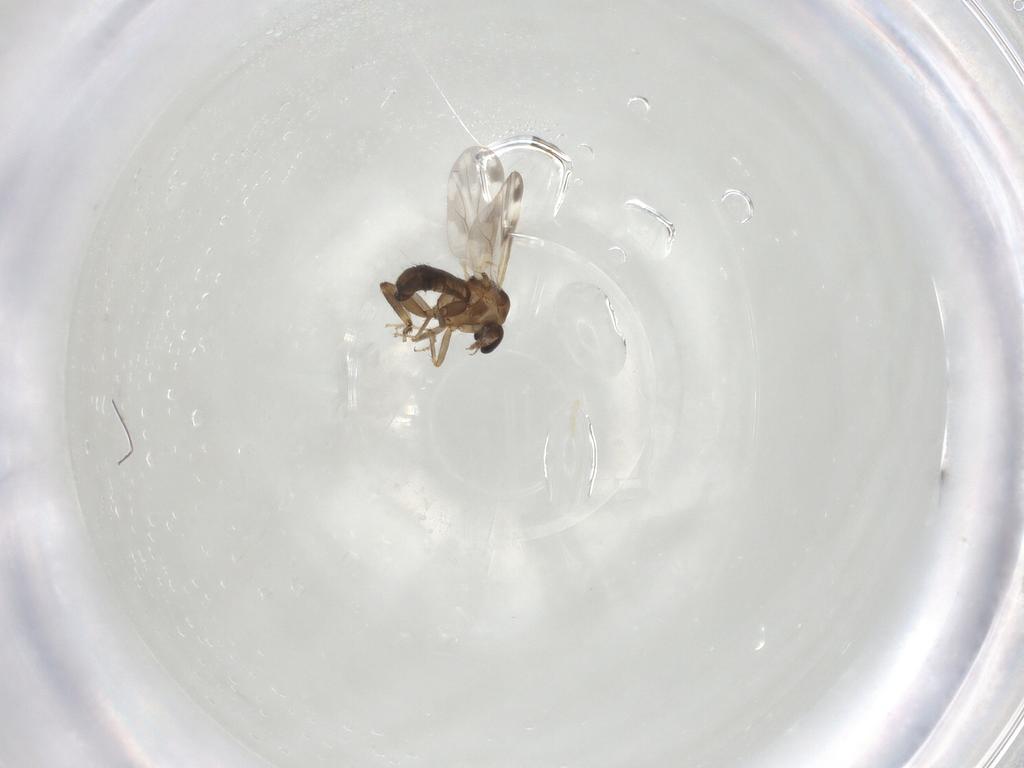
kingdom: Animalia
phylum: Arthropoda
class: Insecta
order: Diptera
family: Ceratopogonidae
